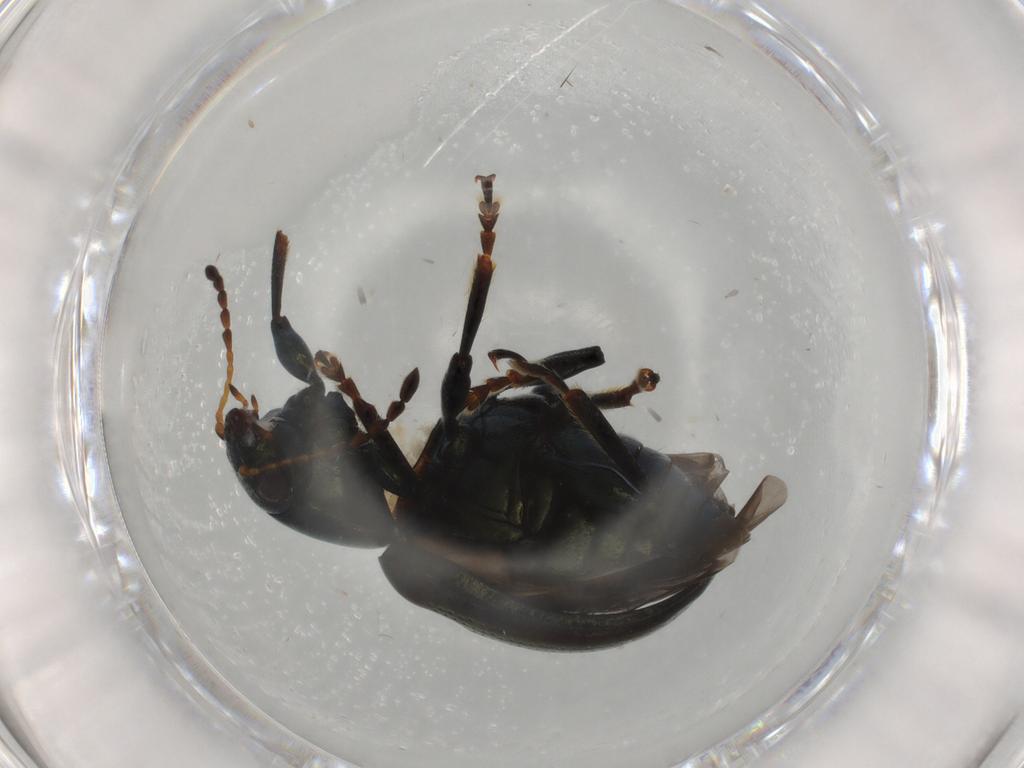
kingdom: Animalia
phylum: Arthropoda
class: Insecta
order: Coleoptera
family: Chrysomelidae
